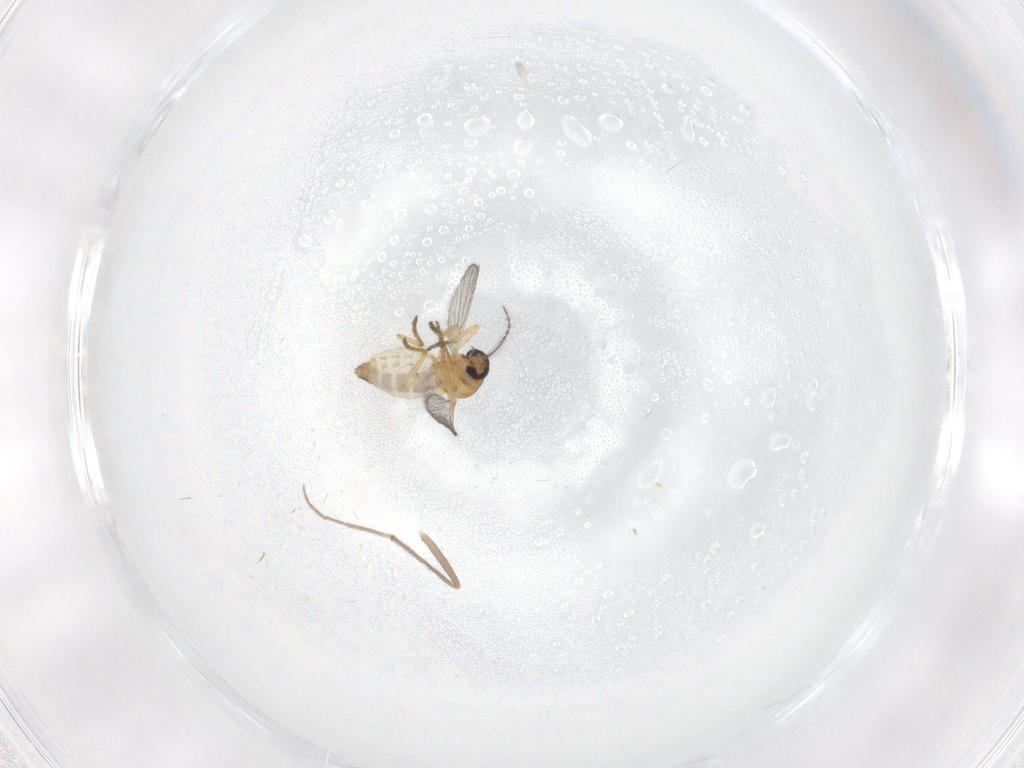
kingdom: Animalia
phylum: Arthropoda
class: Insecta
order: Diptera
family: Ceratopogonidae
